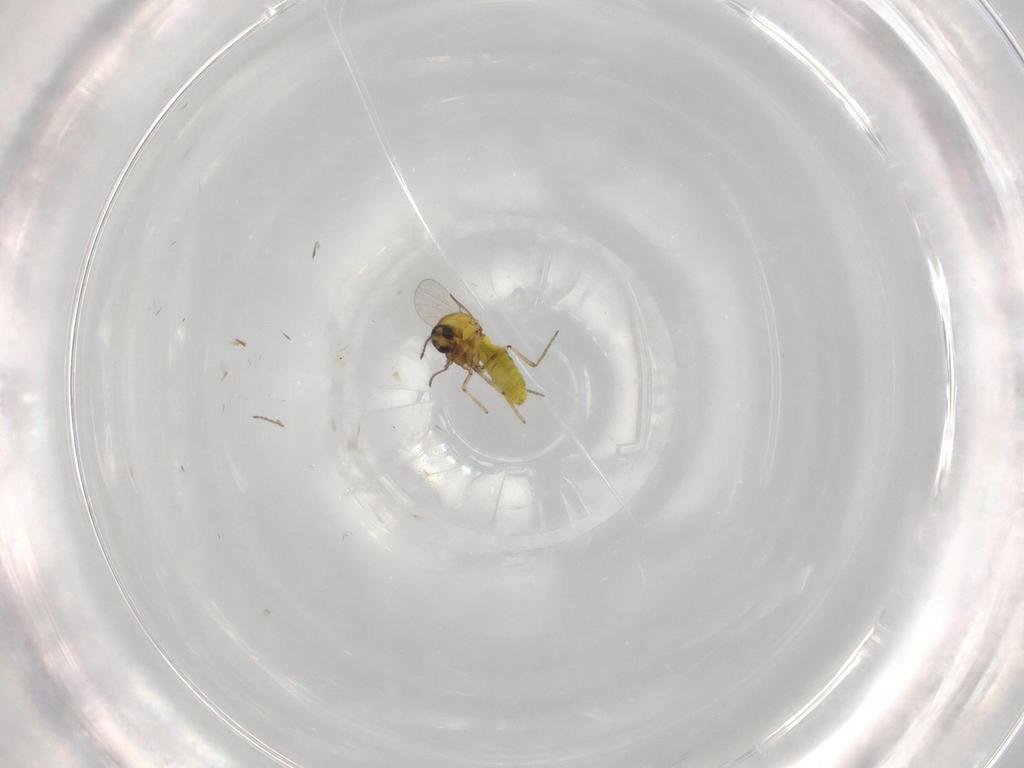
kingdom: Animalia
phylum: Arthropoda
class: Insecta
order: Diptera
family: Ceratopogonidae
